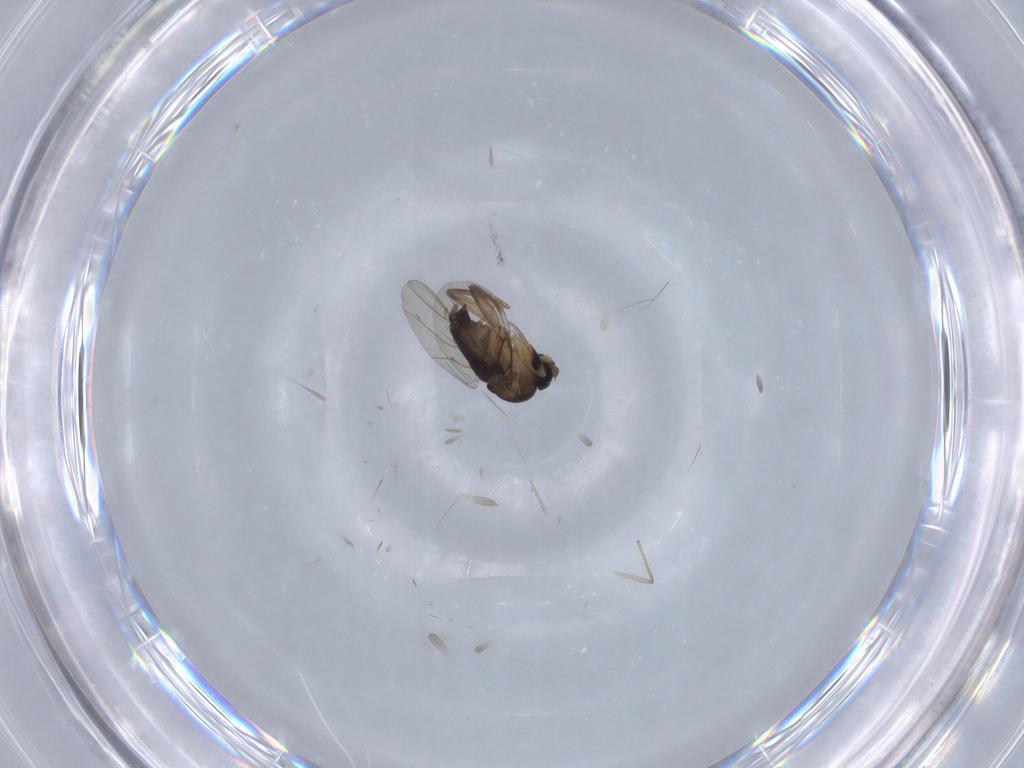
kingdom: Animalia
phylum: Arthropoda
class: Insecta
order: Diptera
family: Phoridae
